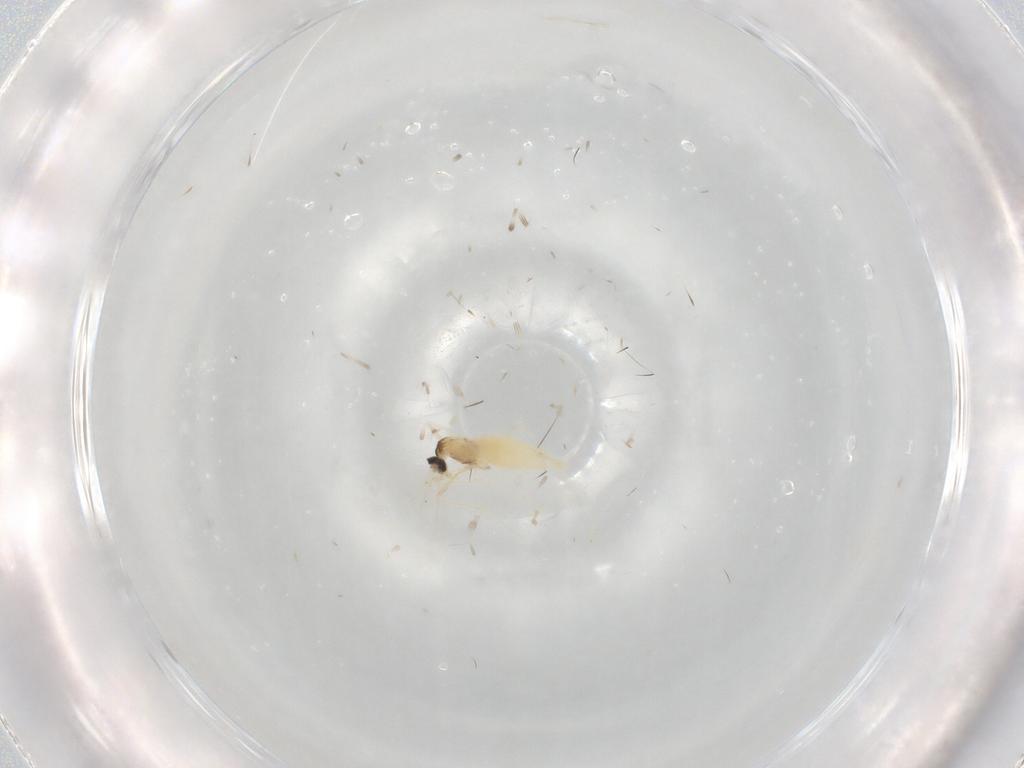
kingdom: Animalia
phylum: Arthropoda
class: Insecta
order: Diptera
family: Cecidomyiidae
